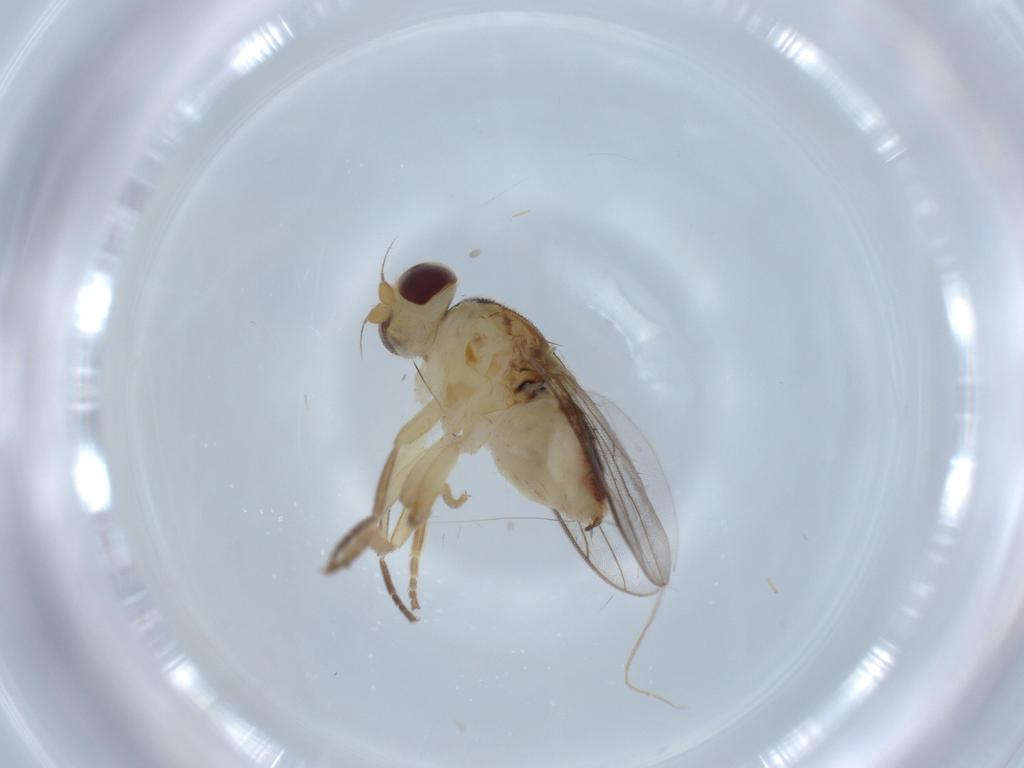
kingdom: Animalia
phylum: Arthropoda
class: Insecta
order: Diptera
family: Chloropidae
